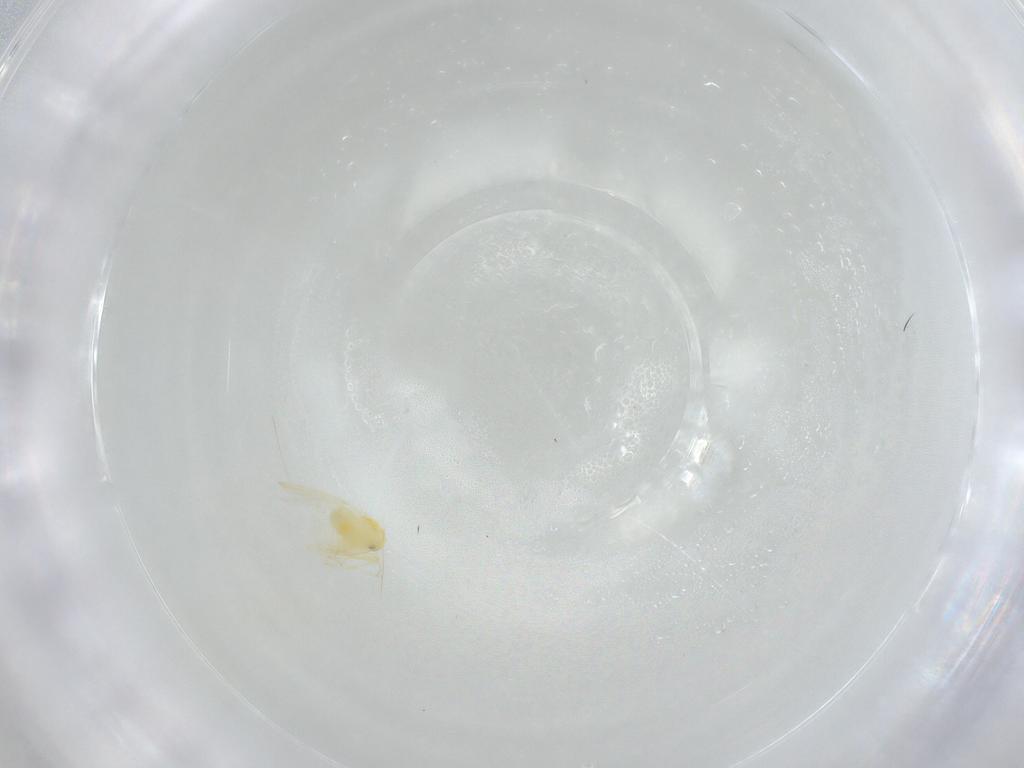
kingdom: Animalia
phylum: Arthropoda
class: Insecta
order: Hemiptera
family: Aleyrodidae
